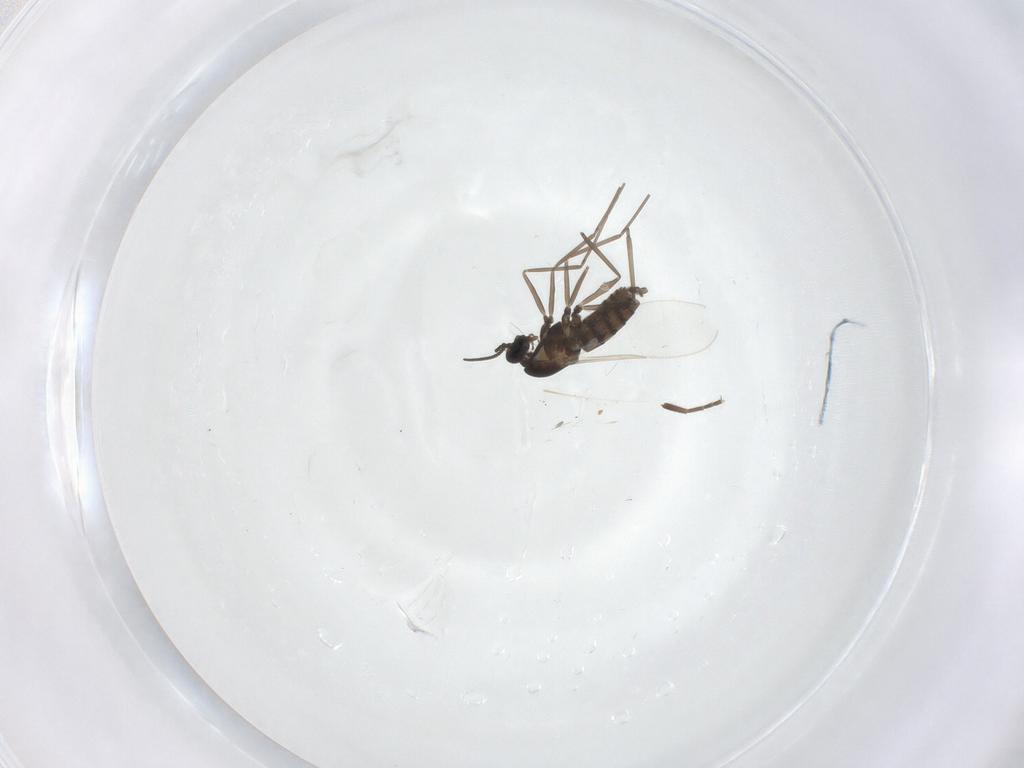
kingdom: Animalia
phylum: Arthropoda
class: Insecta
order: Diptera
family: Cecidomyiidae
